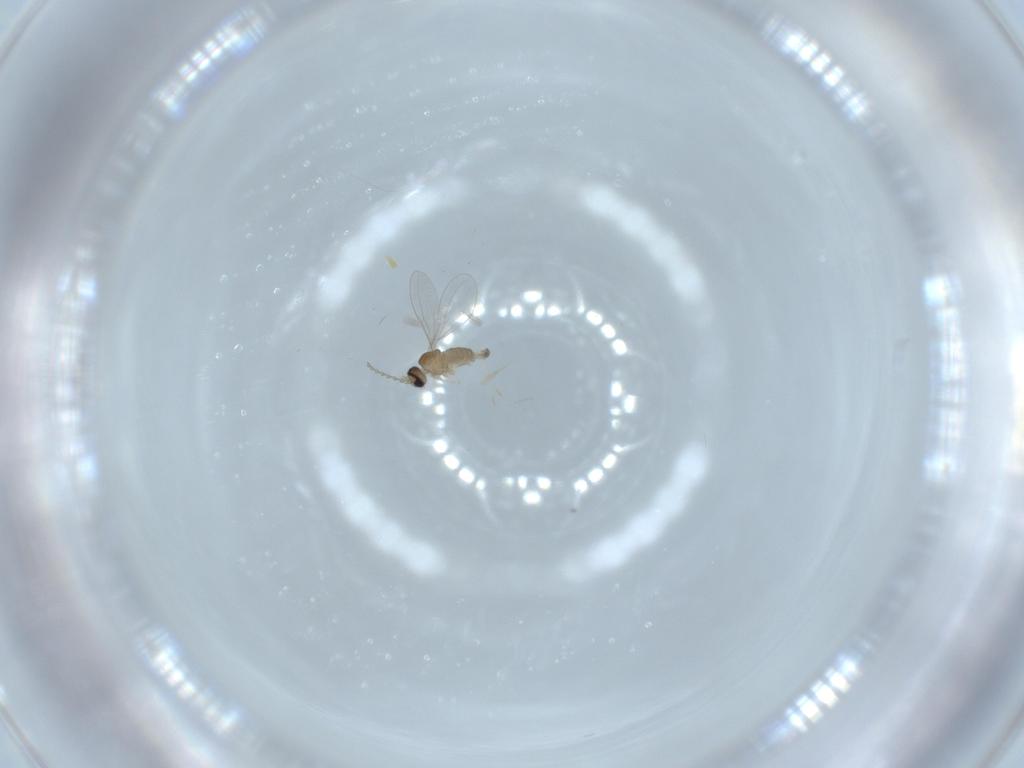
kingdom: Animalia
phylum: Arthropoda
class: Insecta
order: Diptera
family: Cecidomyiidae
